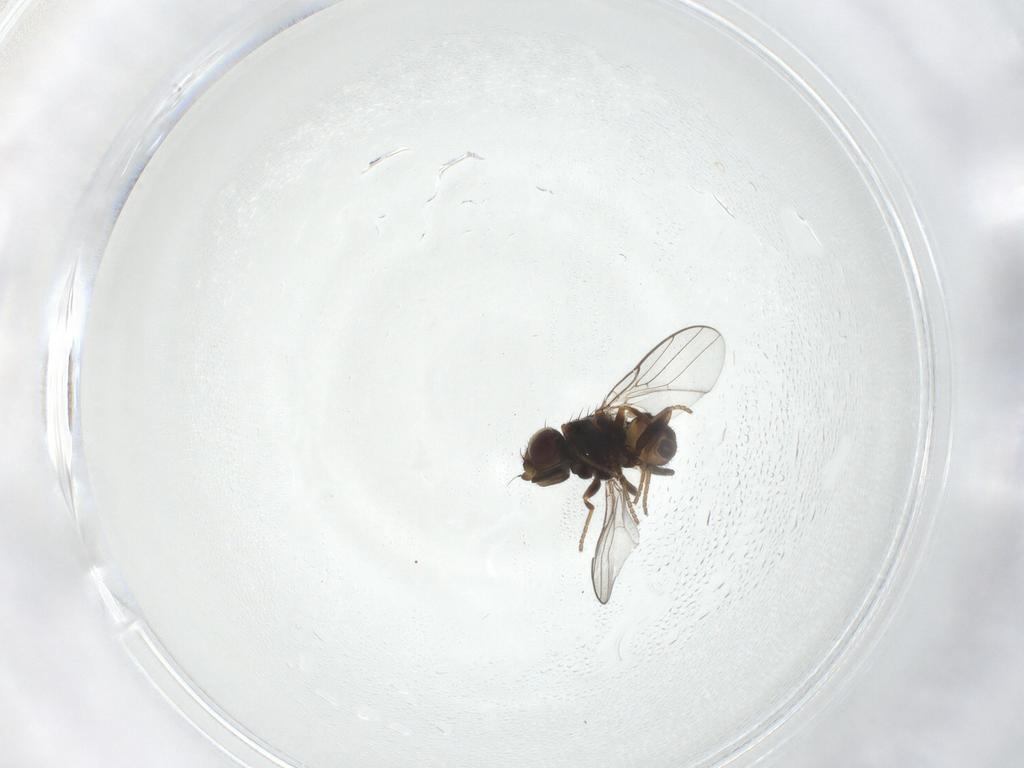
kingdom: Animalia
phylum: Arthropoda
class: Insecta
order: Diptera
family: Chloropidae
